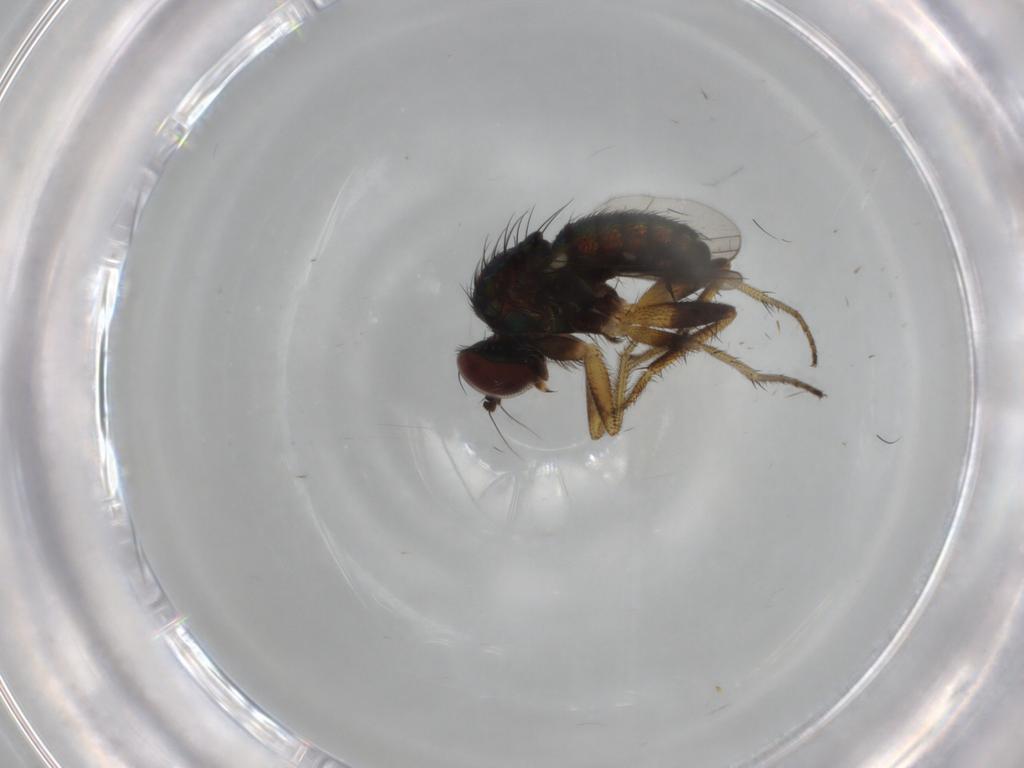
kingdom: Animalia
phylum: Arthropoda
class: Insecta
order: Diptera
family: Dolichopodidae
